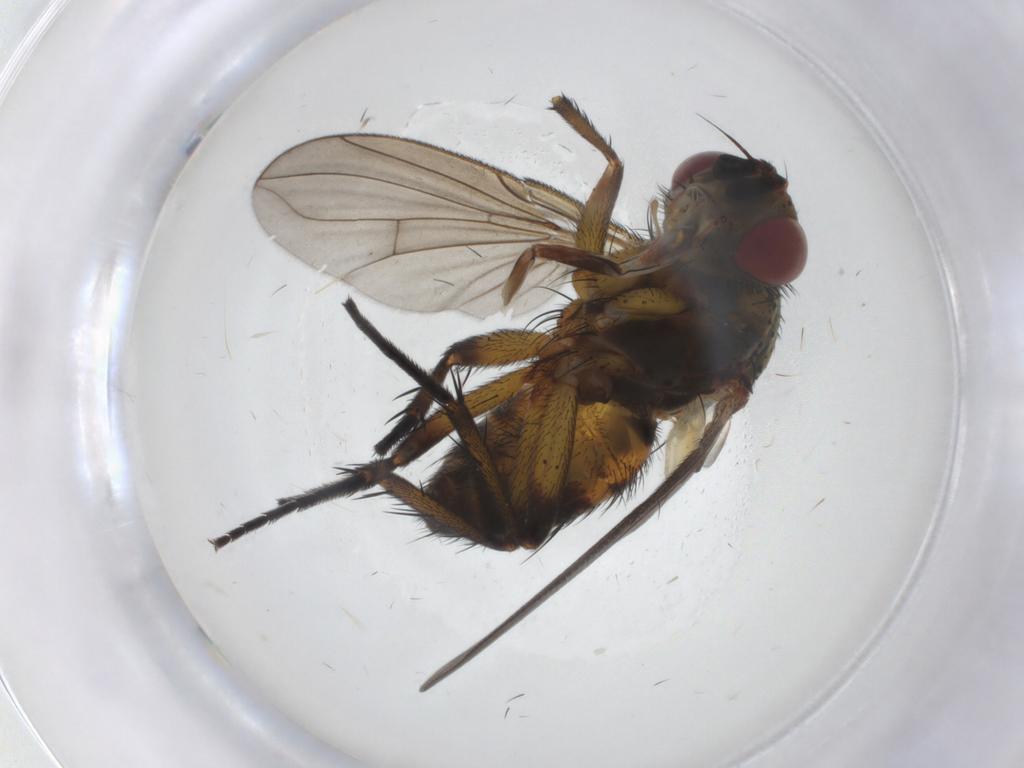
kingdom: Animalia
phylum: Arthropoda
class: Insecta
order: Diptera
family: Tachinidae
